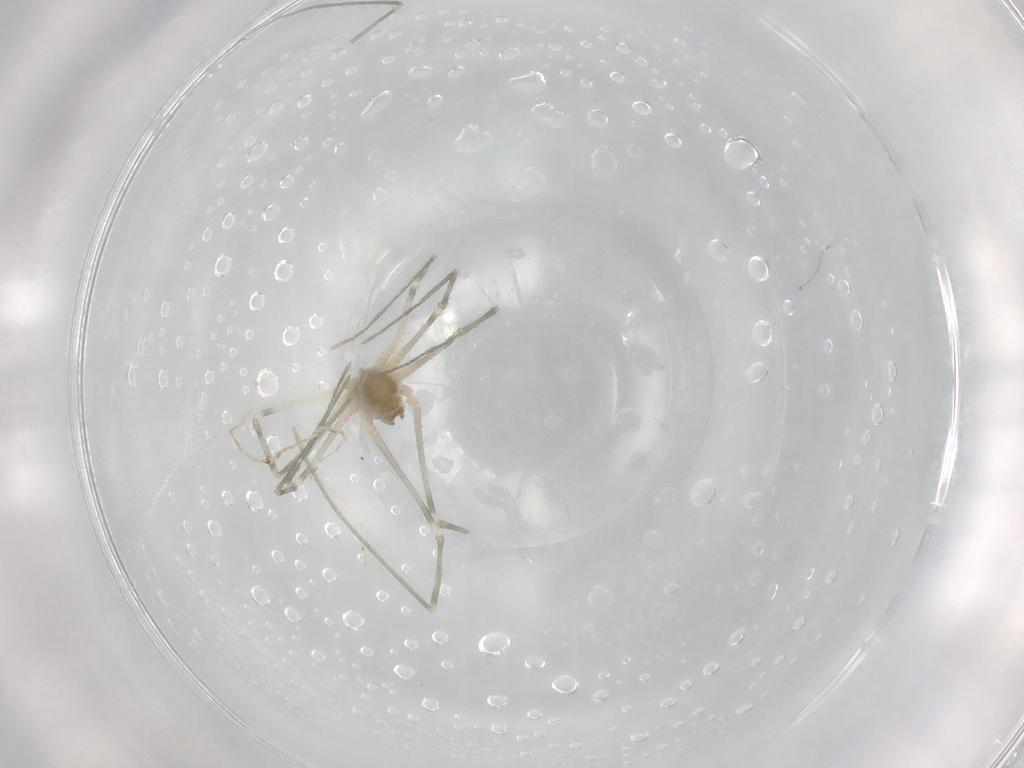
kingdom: Animalia
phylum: Arthropoda
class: Arachnida
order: Araneae
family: Pholcidae
